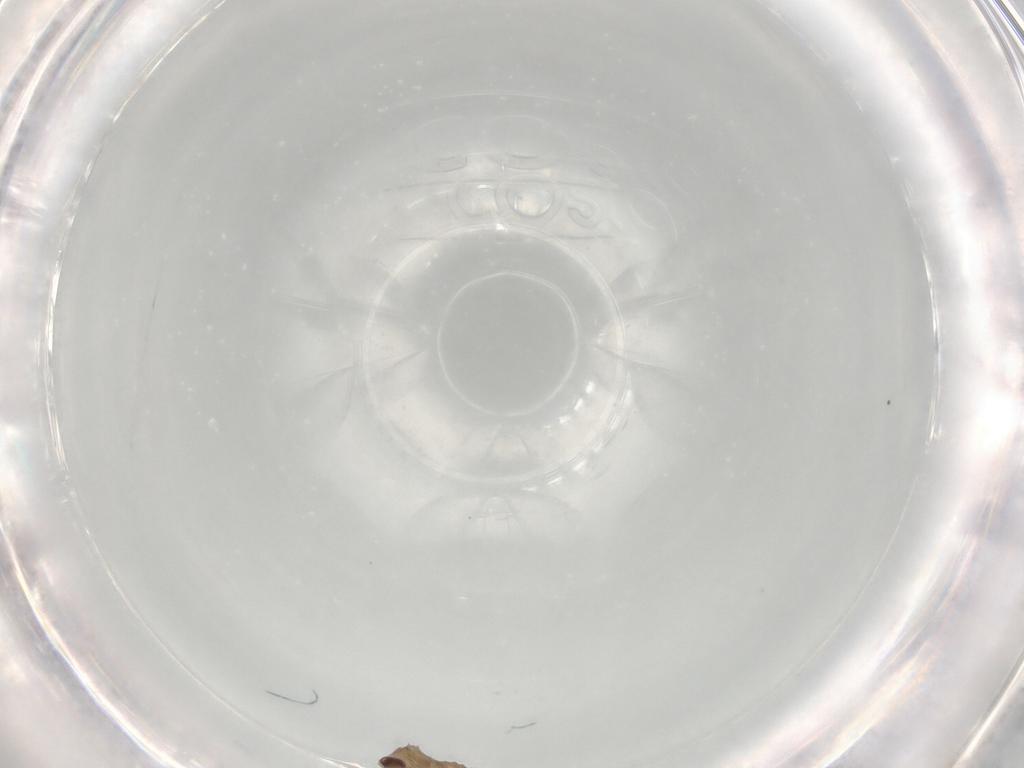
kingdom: Animalia
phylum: Arthropoda
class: Insecta
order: Diptera
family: Cecidomyiidae
